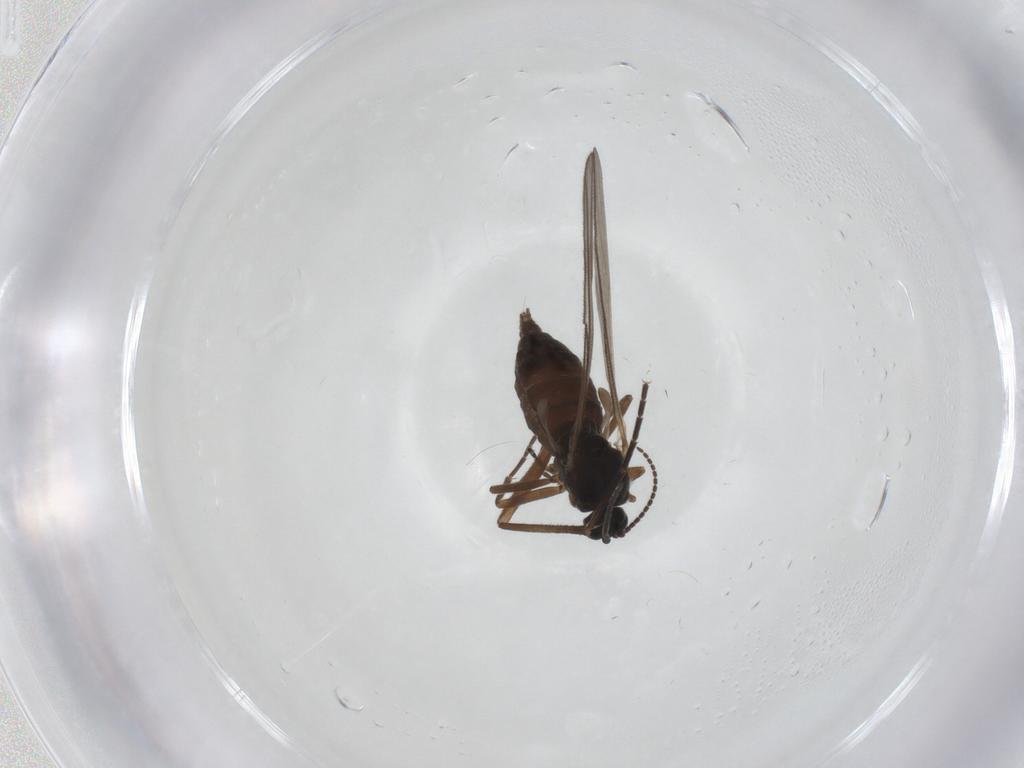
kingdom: Animalia
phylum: Arthropoda
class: Insecta
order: Diptera
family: Sciaridae
